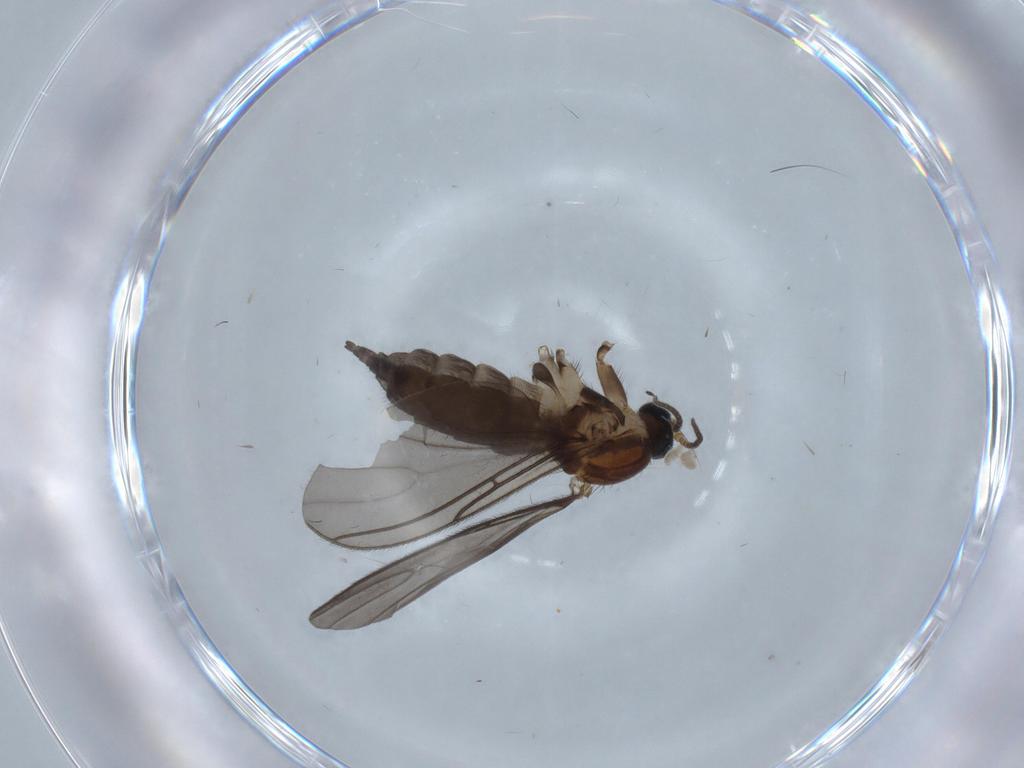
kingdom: Animalia
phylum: Arthropoda
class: Insecta
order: Diptera
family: Sciaridae
